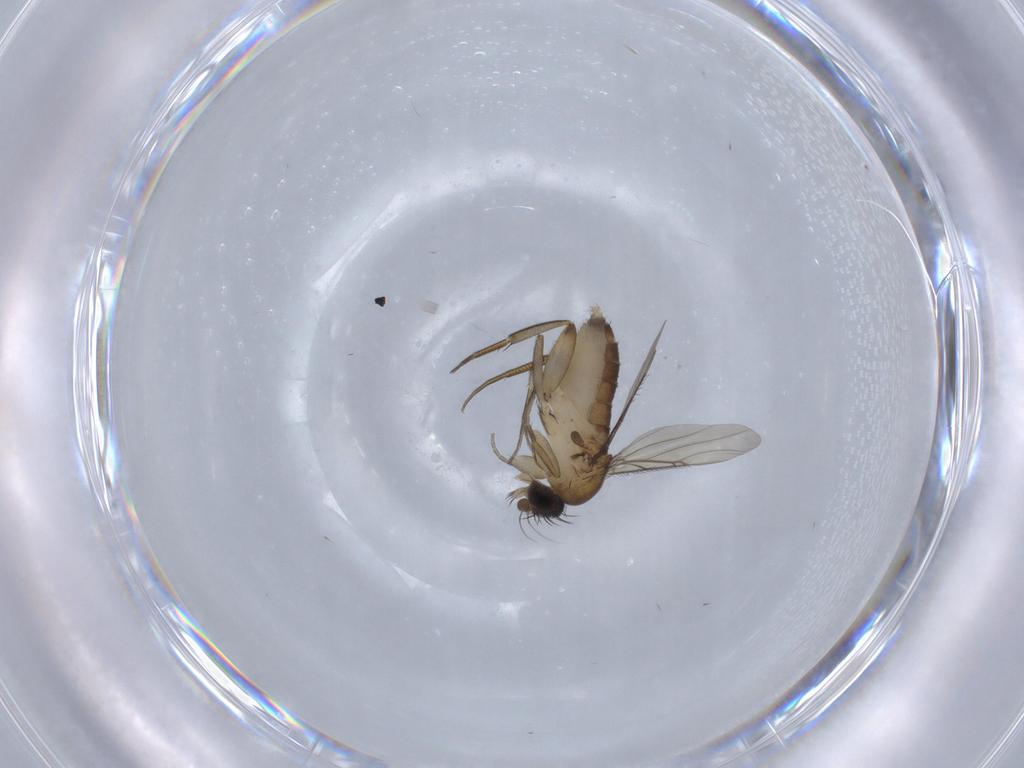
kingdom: Animalia
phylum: Arthropoda
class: Insecta
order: Diptera
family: Phoridae
